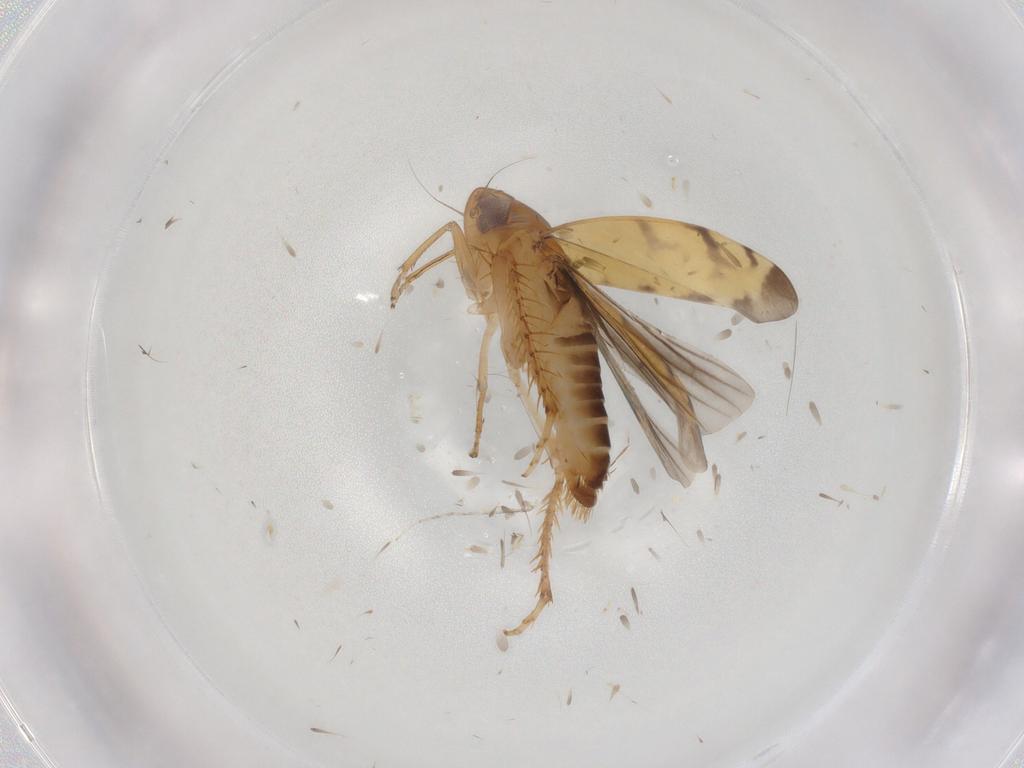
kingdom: Animalia
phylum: Arthropoda
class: Insecta
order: Hemiptera
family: Cicadellidae
